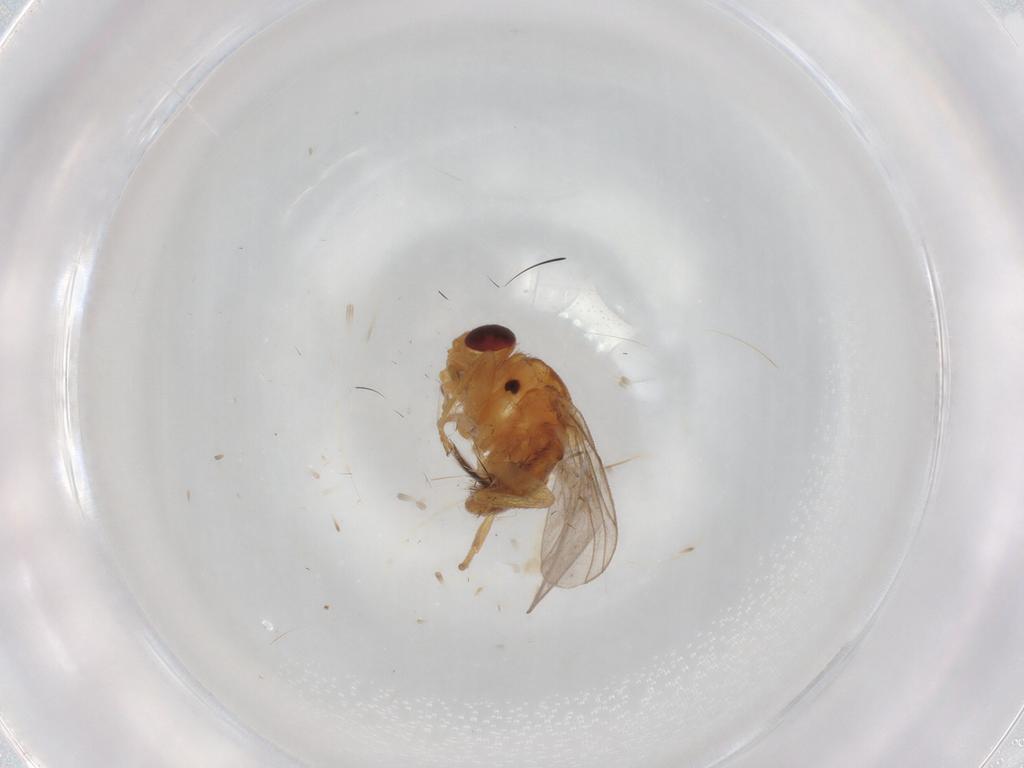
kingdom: Animalia
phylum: Arthropoda
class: Insecta
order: Diptera
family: Chloropidae
